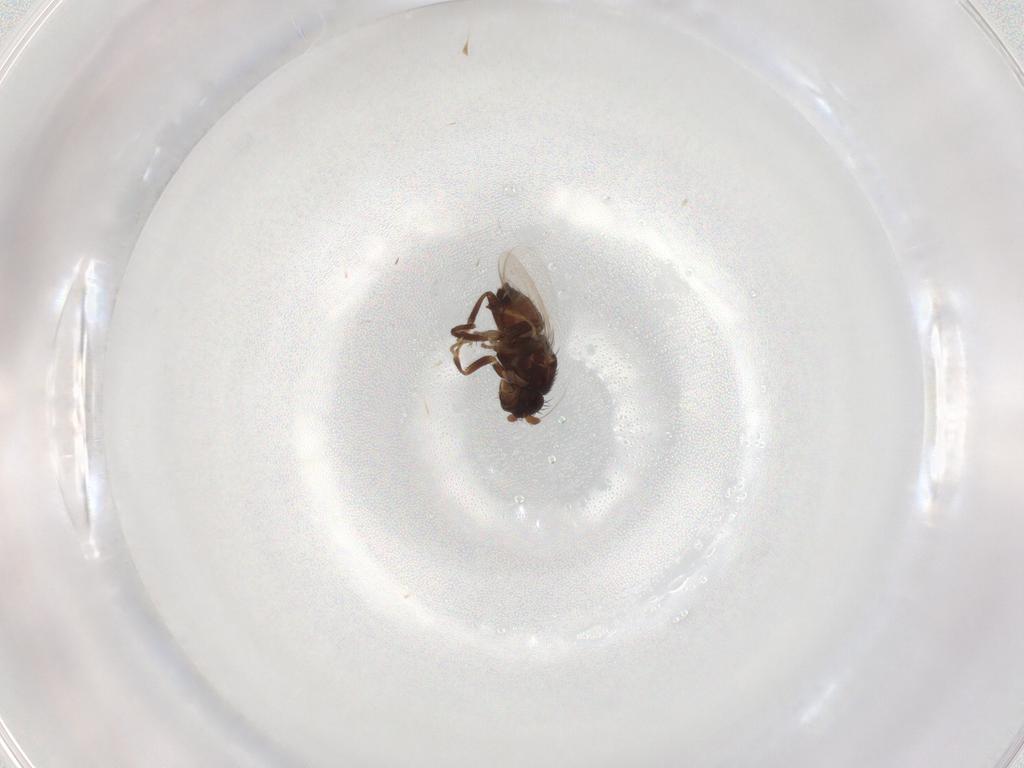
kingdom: Animalia
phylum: Arthropoda
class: Insecta
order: Diptera
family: Sphaeroceridae
